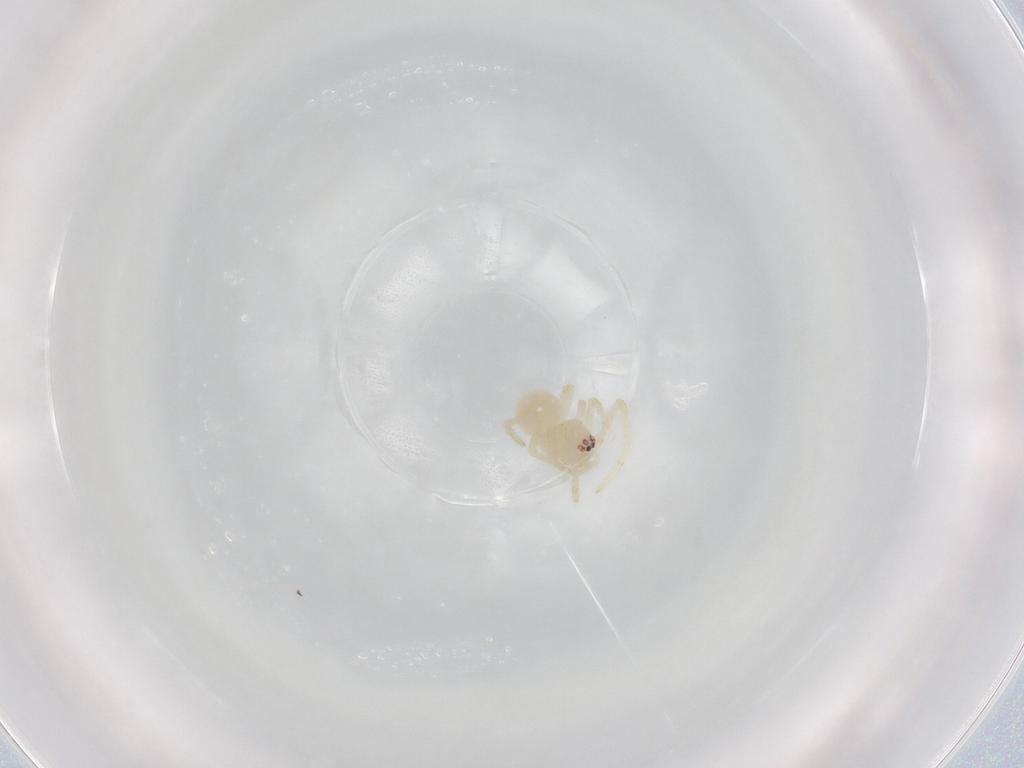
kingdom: Animalia
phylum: Arthropoda
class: Arachnida
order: Araneae
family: Theridiidae
